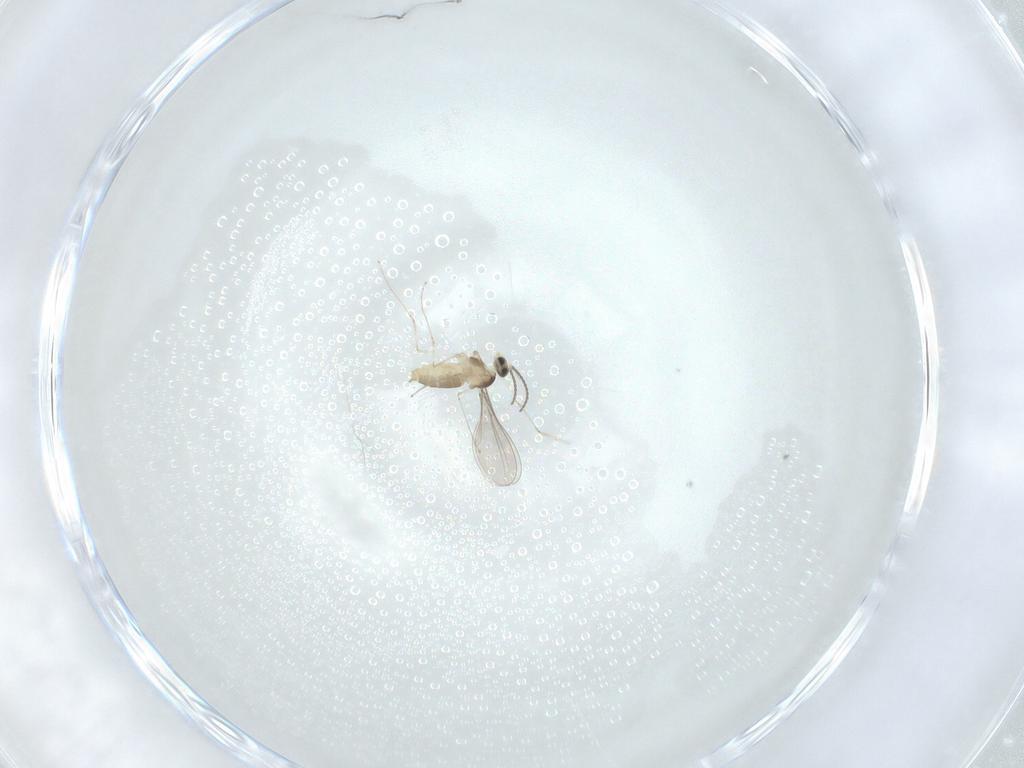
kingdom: Animalia
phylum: Arthropoda
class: Insecta
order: Diptera
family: Cecidomyiidae
